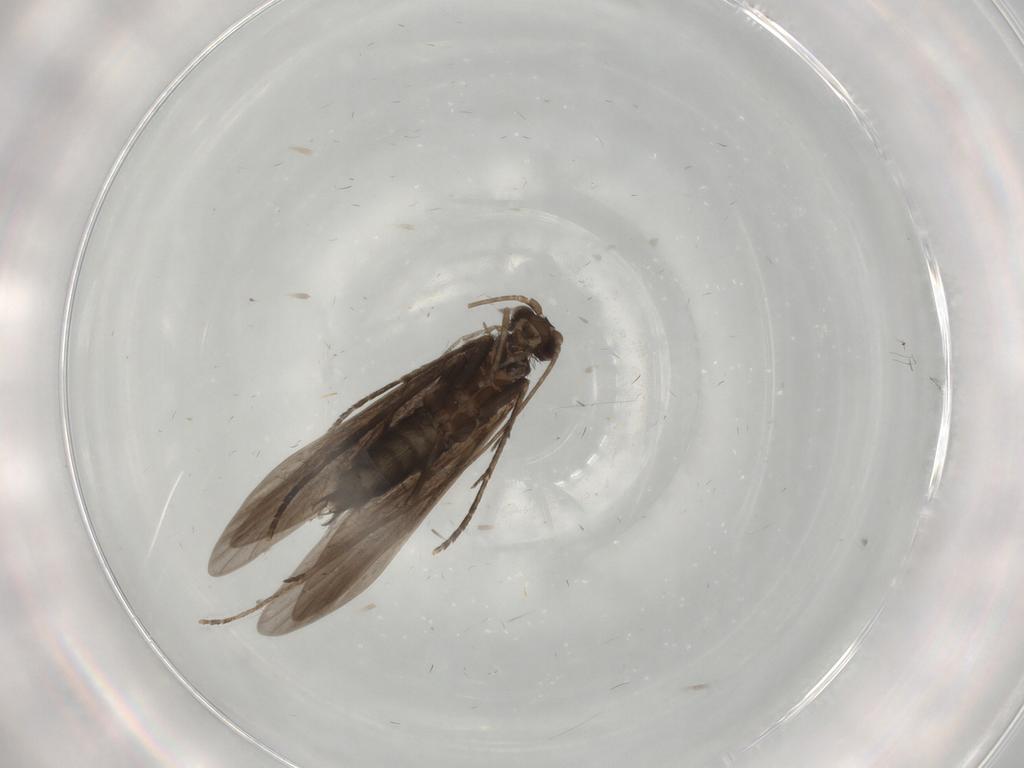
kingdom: Animalia
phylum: Arthropoda
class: Insecta
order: Trichoptera
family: Xiphocentronidae
